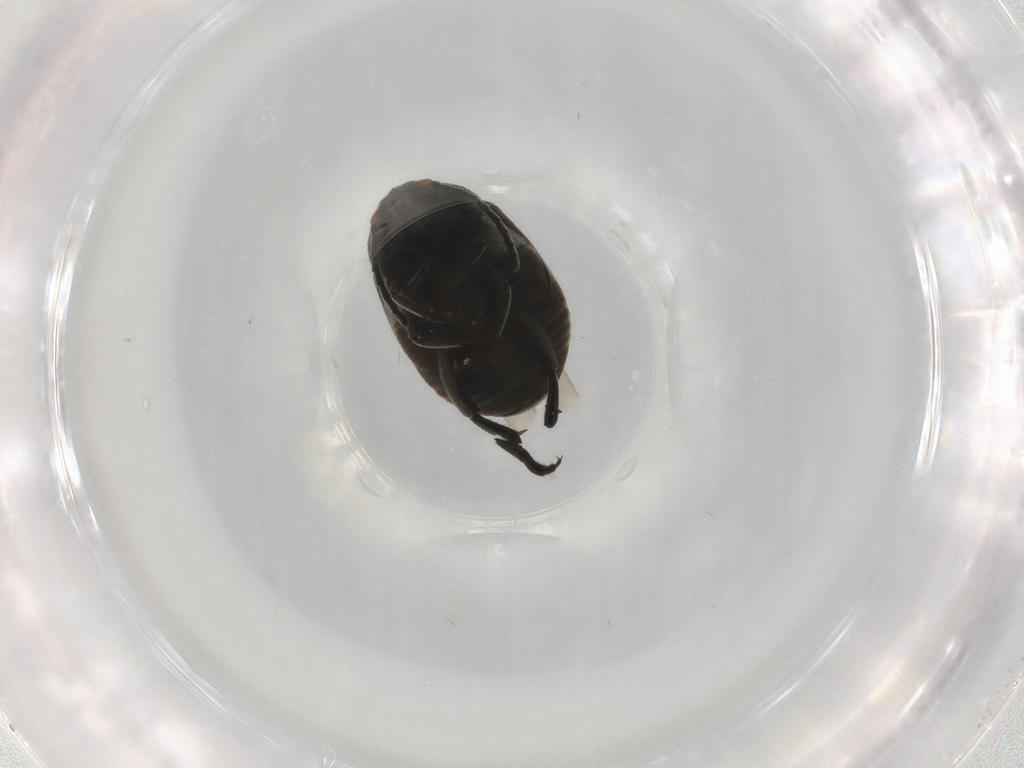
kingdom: Animalia
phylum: Arthropoda
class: Insecta
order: Coleoptera
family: Chrysomelidae
